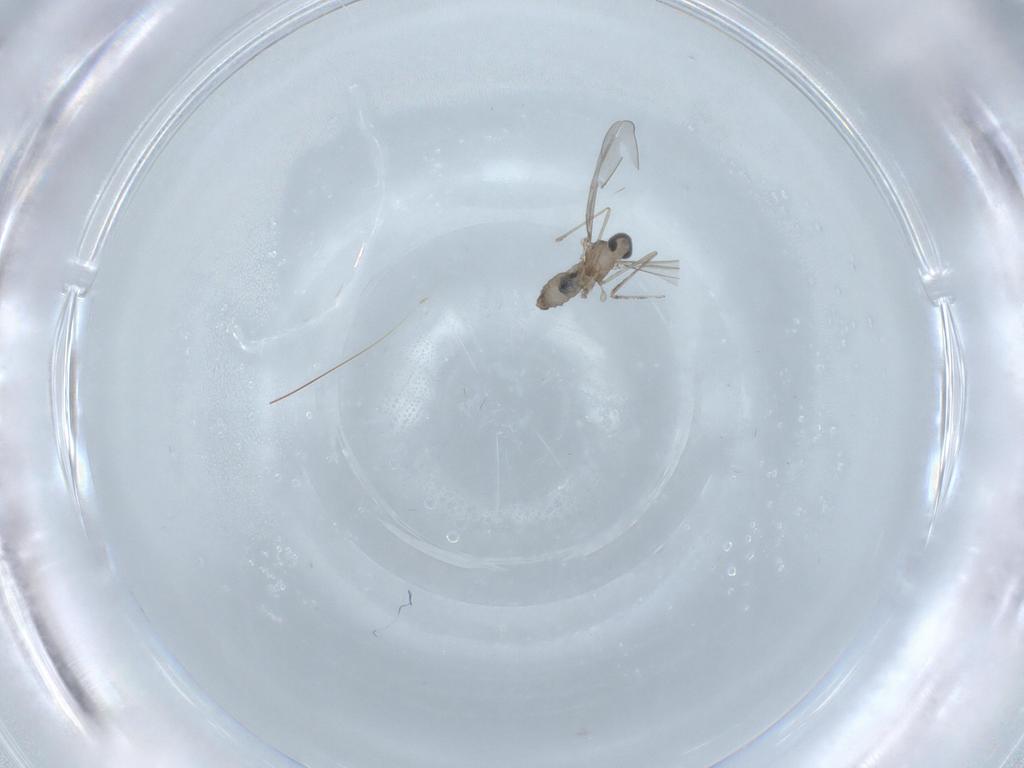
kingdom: Animalia
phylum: Arthropoda
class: Insecta
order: Diptera
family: Cecidomyiidae
